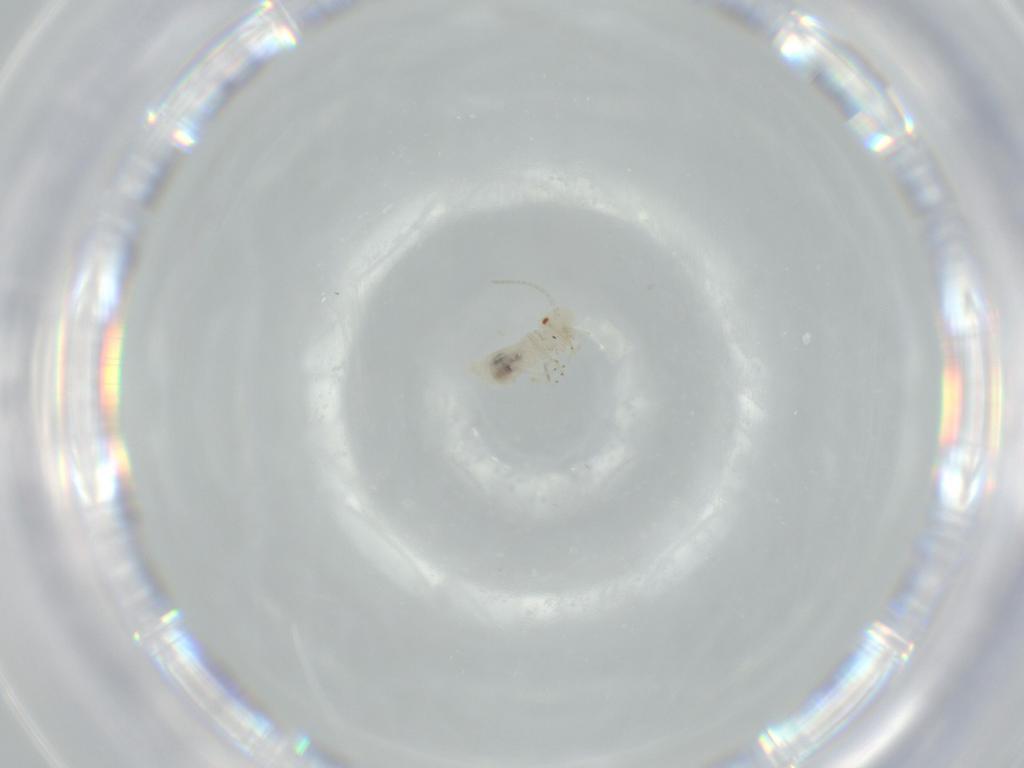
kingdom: Animalia
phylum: Arthropoda
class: Insecta
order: Psocodea
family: Caeciliusidae
